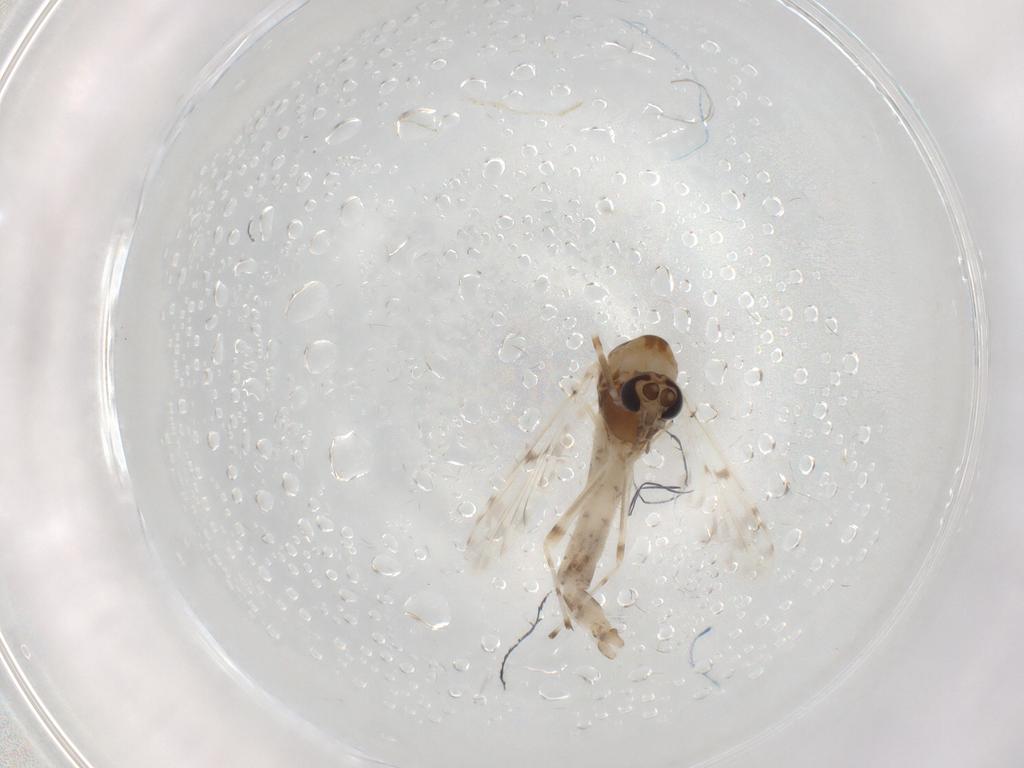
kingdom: Animalia
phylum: Arthropoda
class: Insecta
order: Diptera
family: Chironomidae
